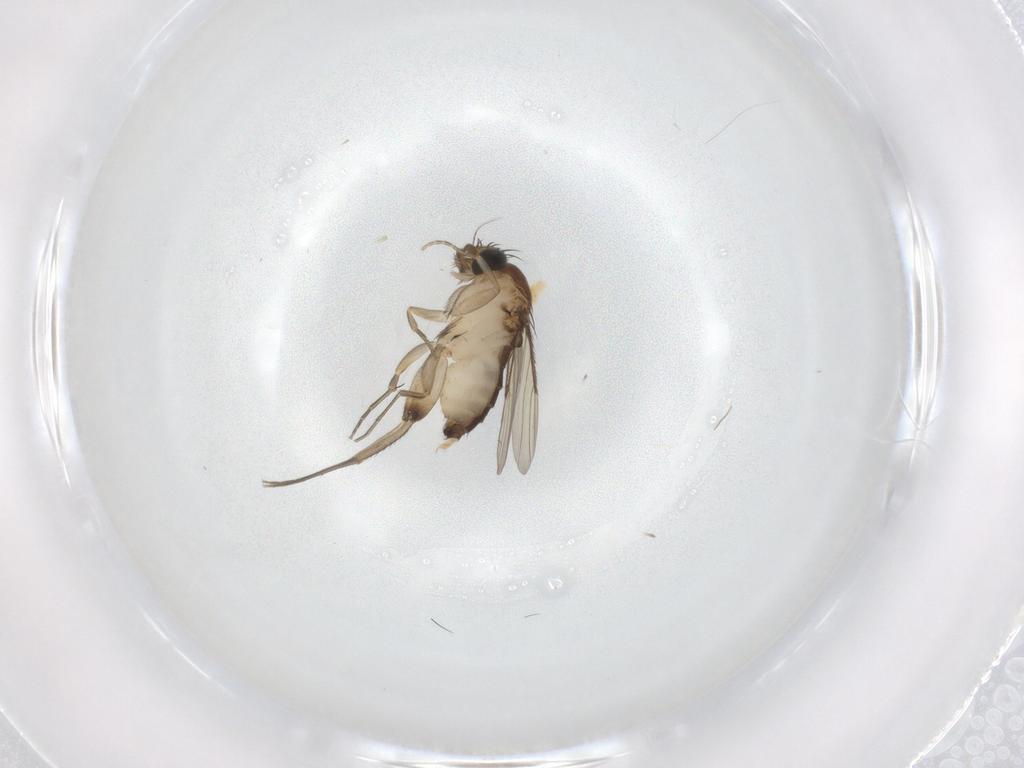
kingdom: Animalia
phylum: Arthropoda
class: Insecta
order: Diptera
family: Phoridae
